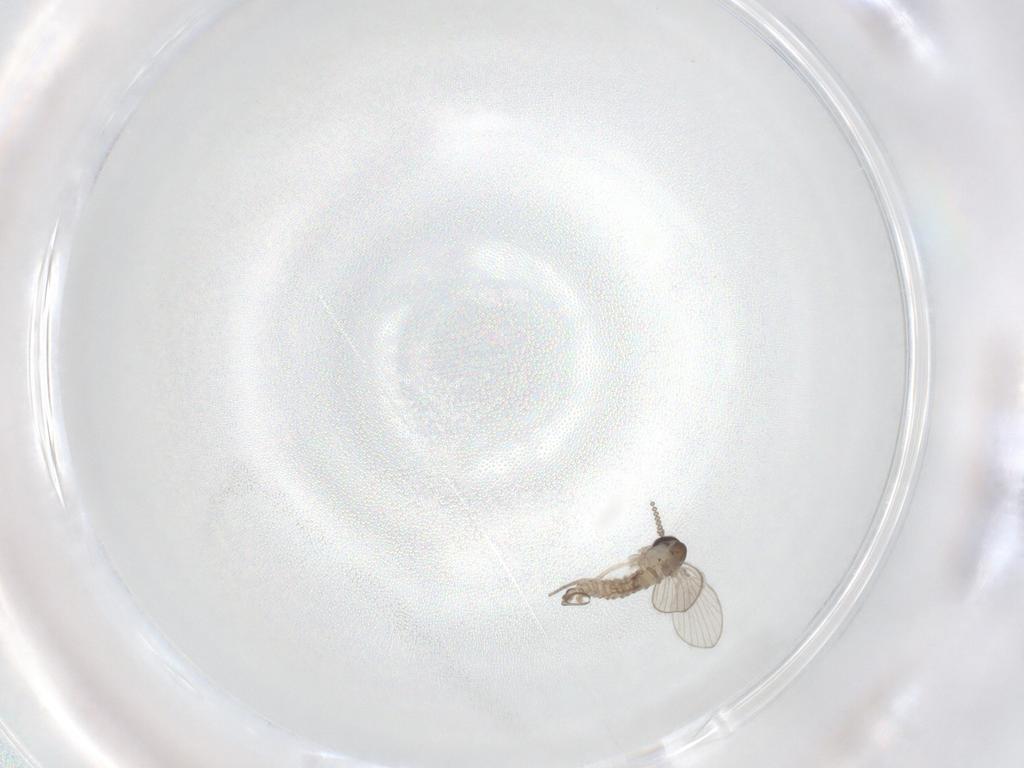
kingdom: Animalia
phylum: Arthropoda
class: Insecta
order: Diptera
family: Psychodidae
